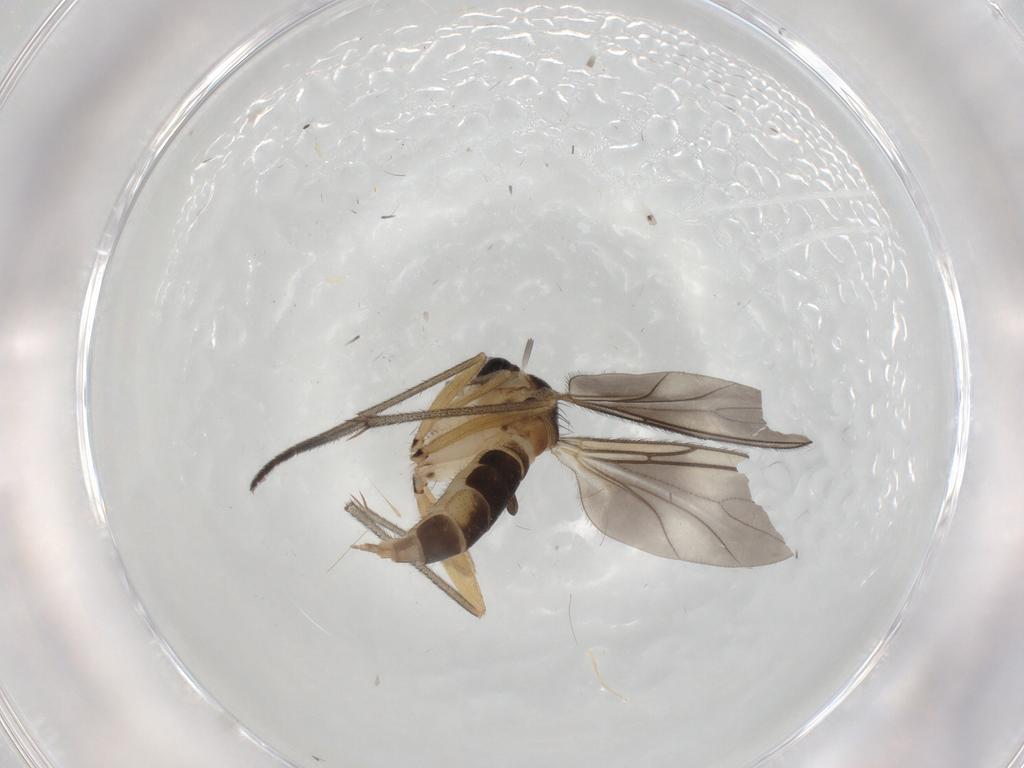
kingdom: Animalia
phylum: Arthropoda
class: Insecta
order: Diptera
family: Sciaridae
